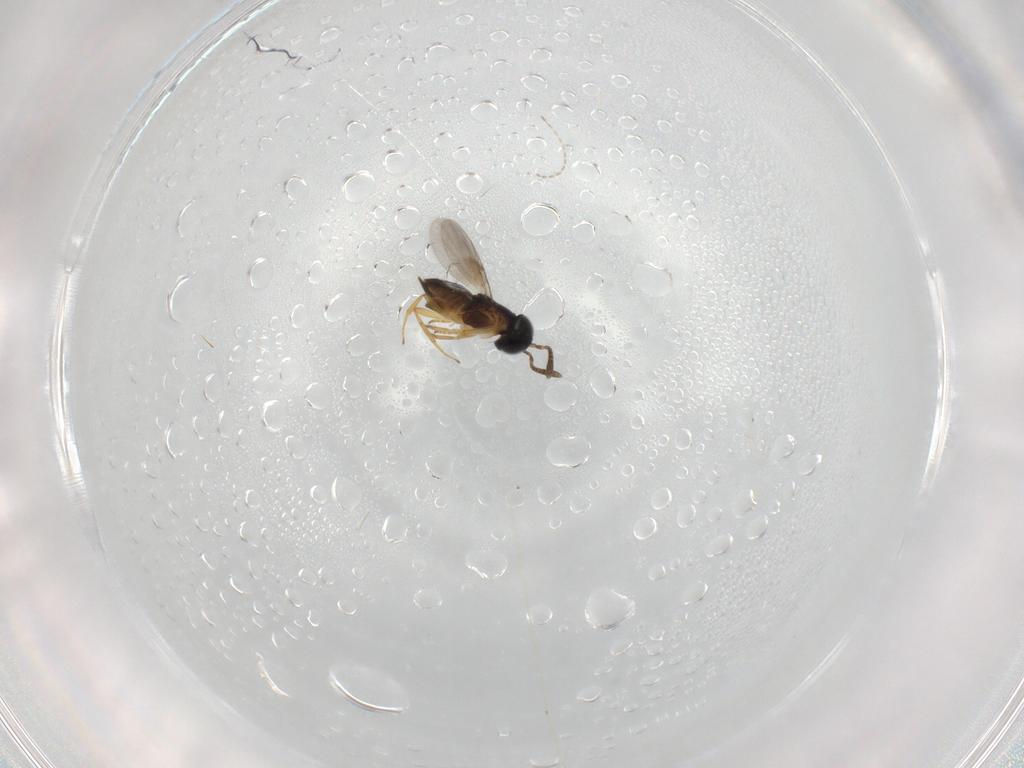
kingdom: Animalia
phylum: Arthropoda
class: Insecta
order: Hymenoptera
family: Trichogrammatidae
